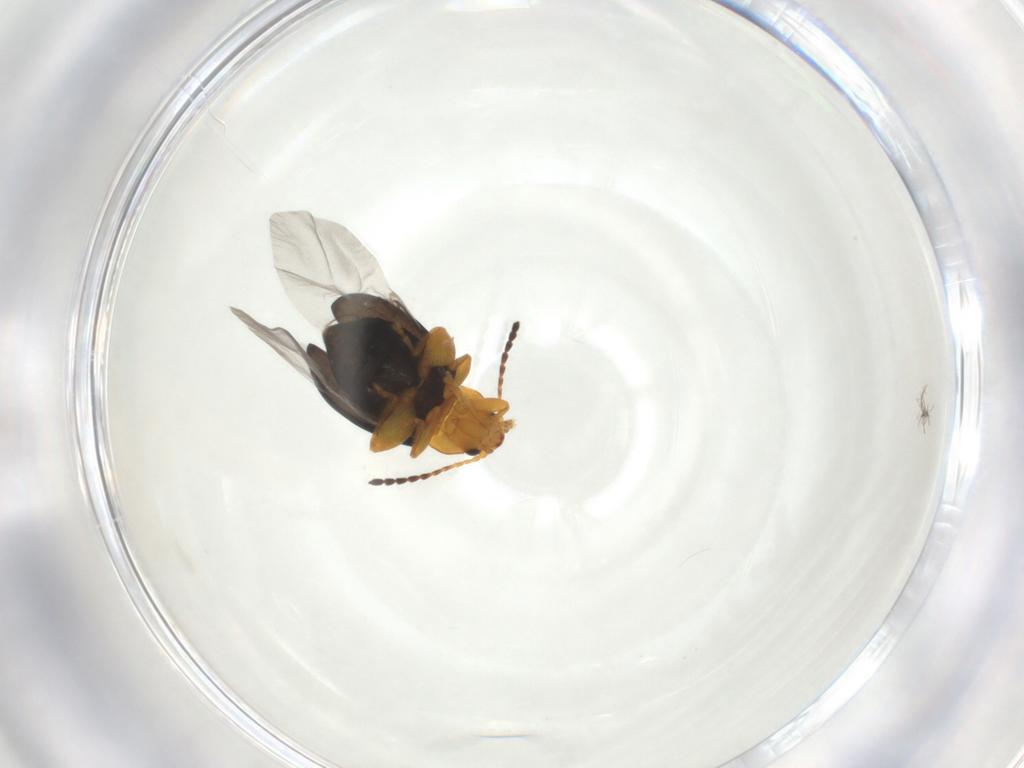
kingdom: Animalia
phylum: Arthropoda
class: Insecta
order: Coleoptera
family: Chrysomelidae
